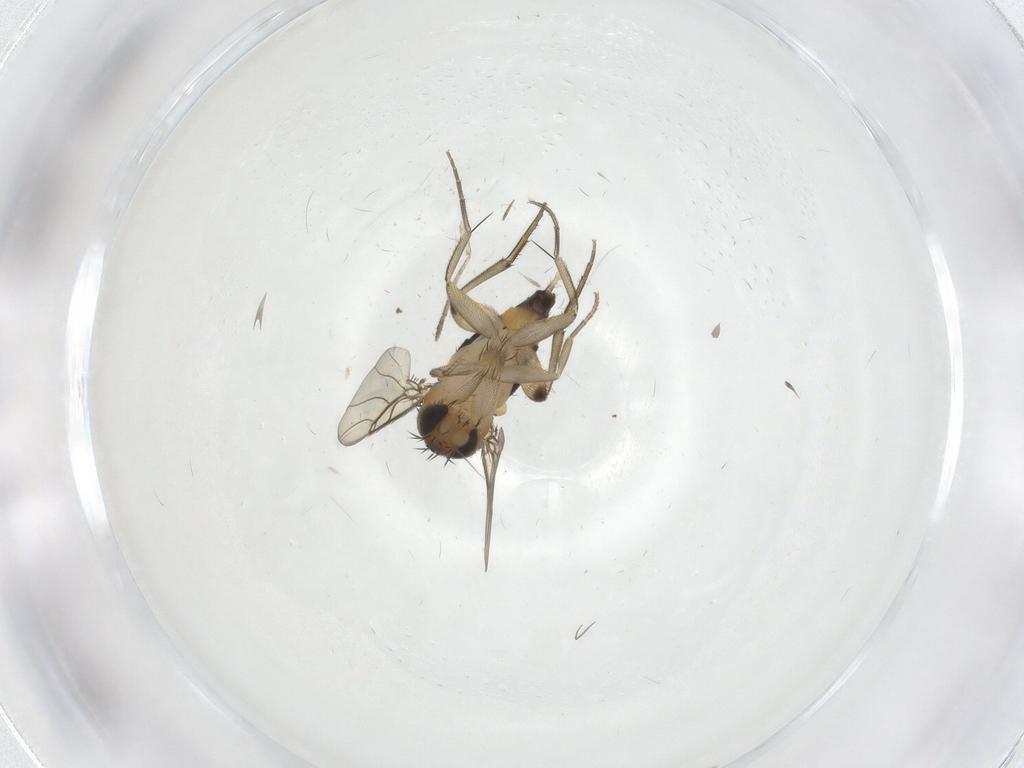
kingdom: Animalia
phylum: Arthropoda
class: Insecta
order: Diptera
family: Phoridae
